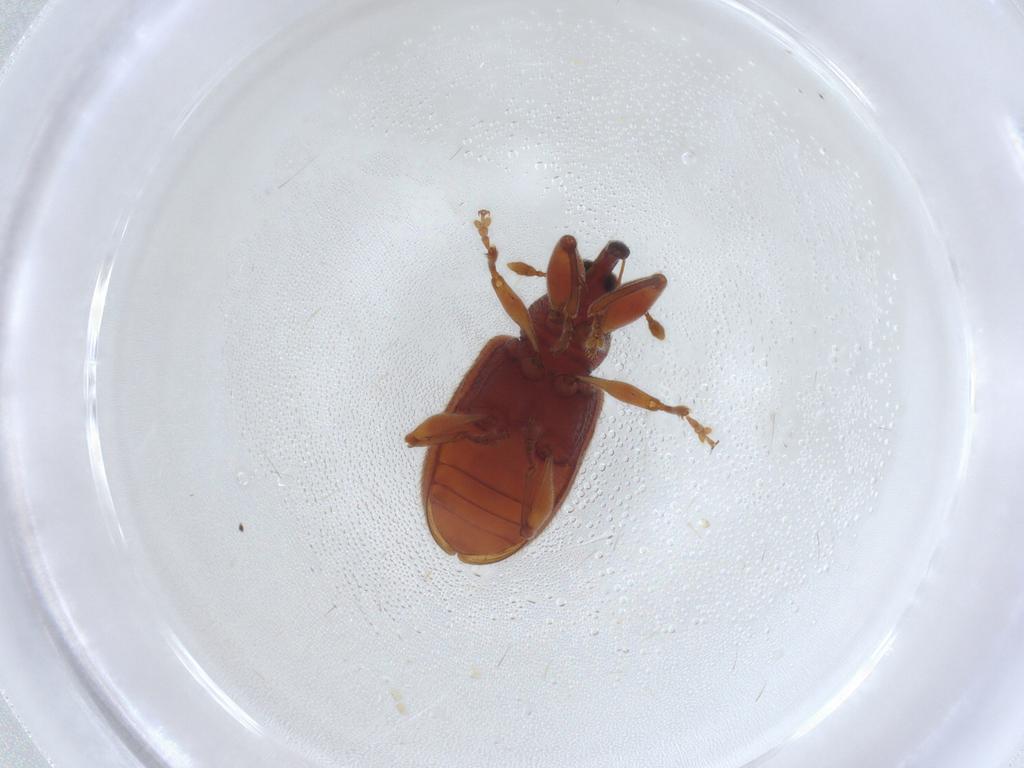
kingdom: Animalia
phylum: Arthropoda
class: Insecta
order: Coleoptera
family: Curculionidae
